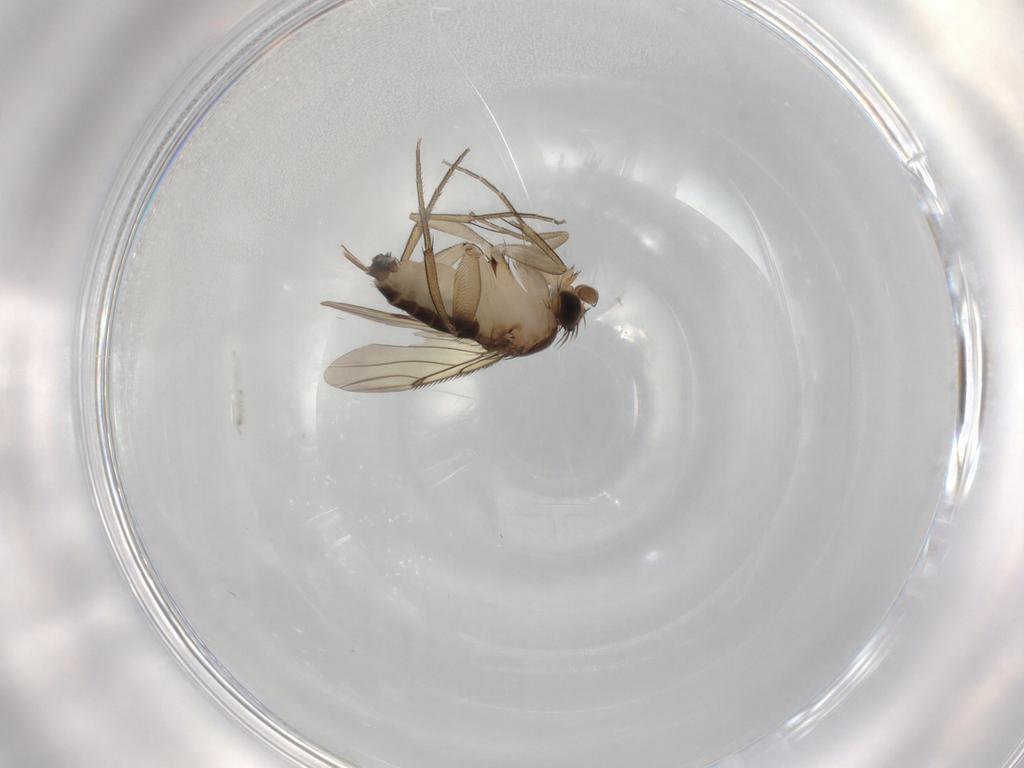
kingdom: Animalia
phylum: Arthropoda
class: Insecta
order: Diptera
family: Phoridae
